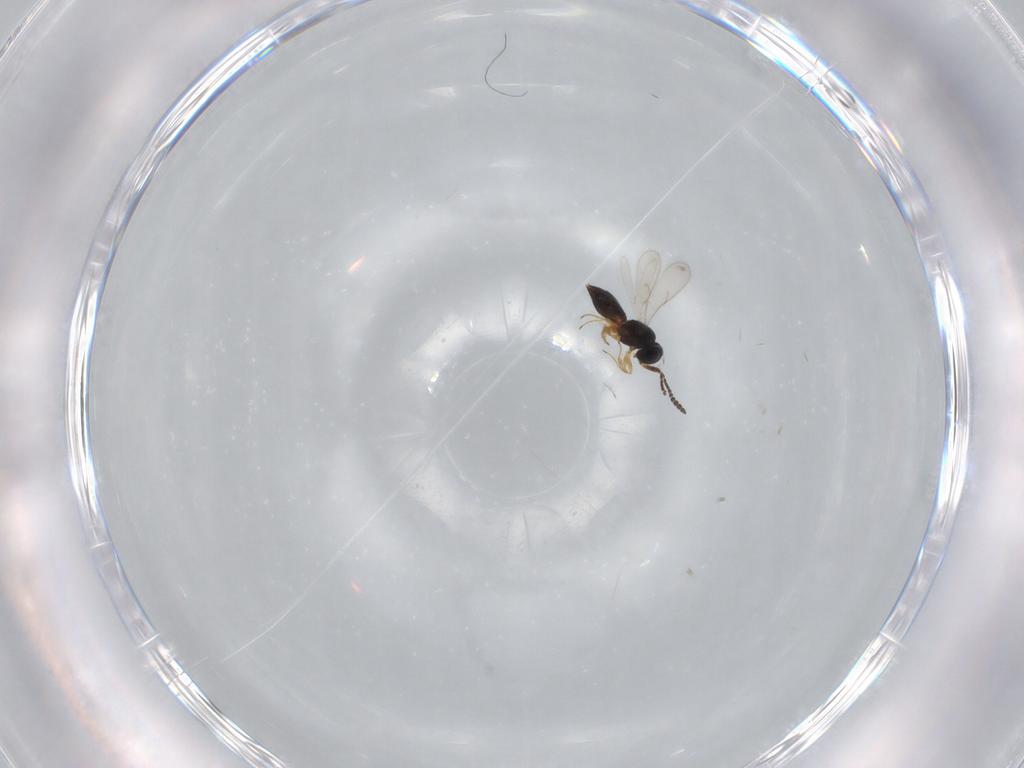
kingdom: Animalia
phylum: Arthropoda
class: Insecta
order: Hymenoptera
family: Scelionidae
